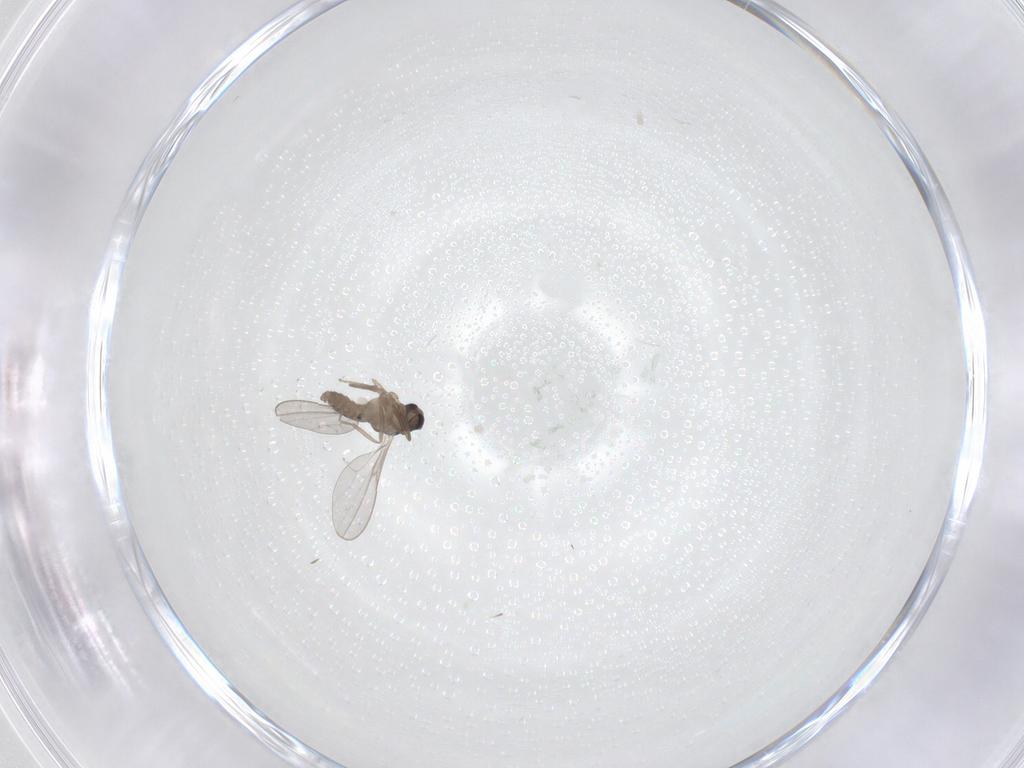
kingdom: Animalia
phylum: Arthropoda
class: Insecta
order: Diptera
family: Cecidomyiidae
